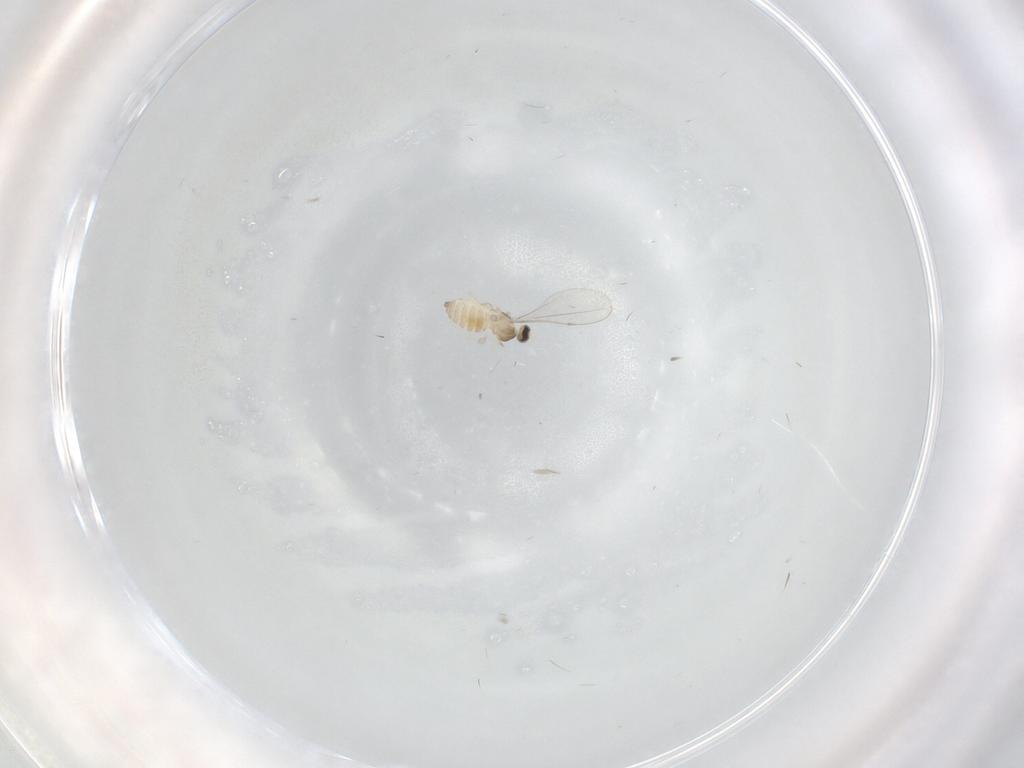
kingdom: Animalia
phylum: Arthropoda
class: Insecta
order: Diptera
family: Cecidomyiidae
